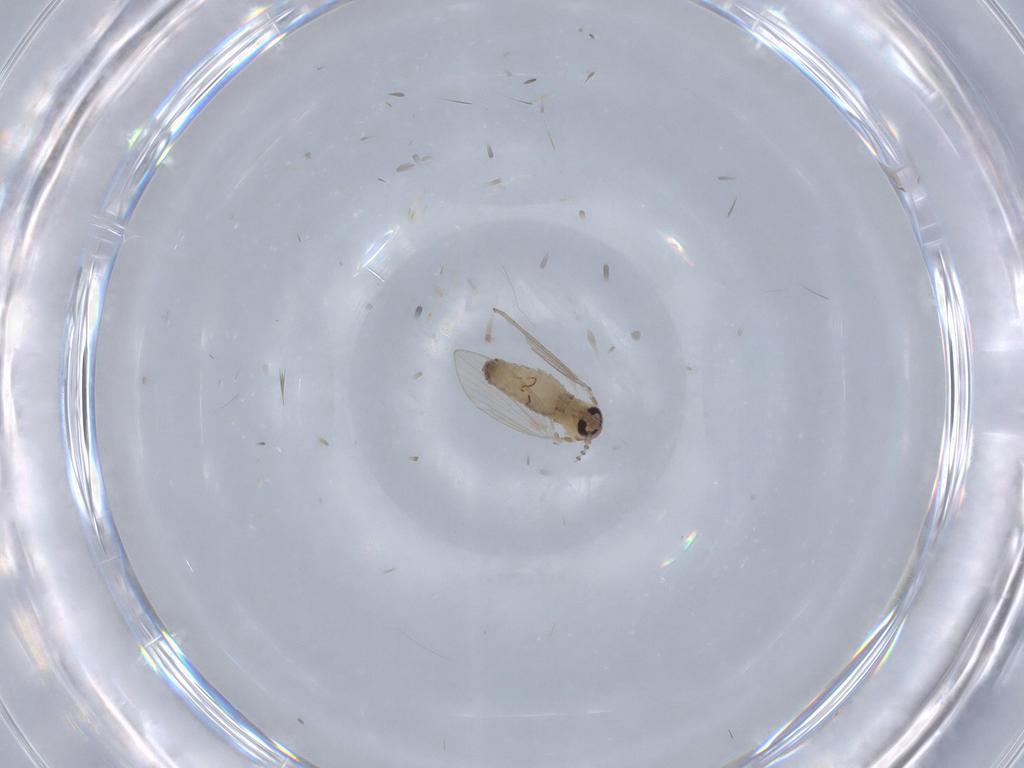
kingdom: Animalia
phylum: Arthropoda
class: Insecta
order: Diptera
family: Psychodidae
